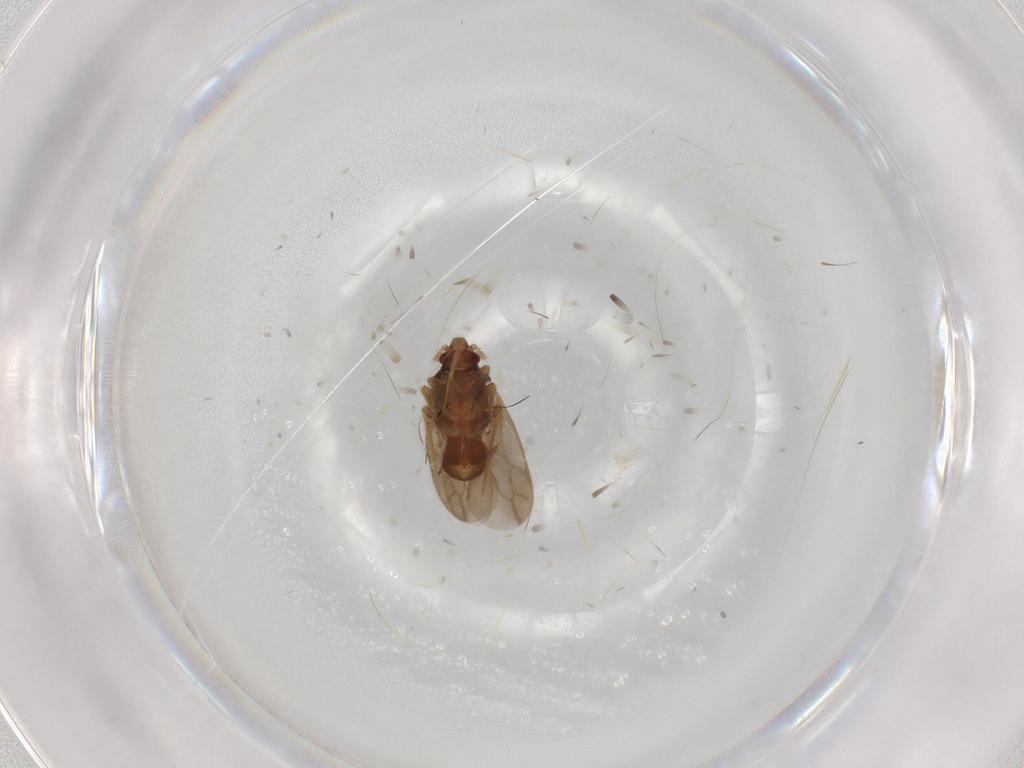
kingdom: Animalia
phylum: Arthropoda
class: Insecta
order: Hemiptera
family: Ceratocombidae
